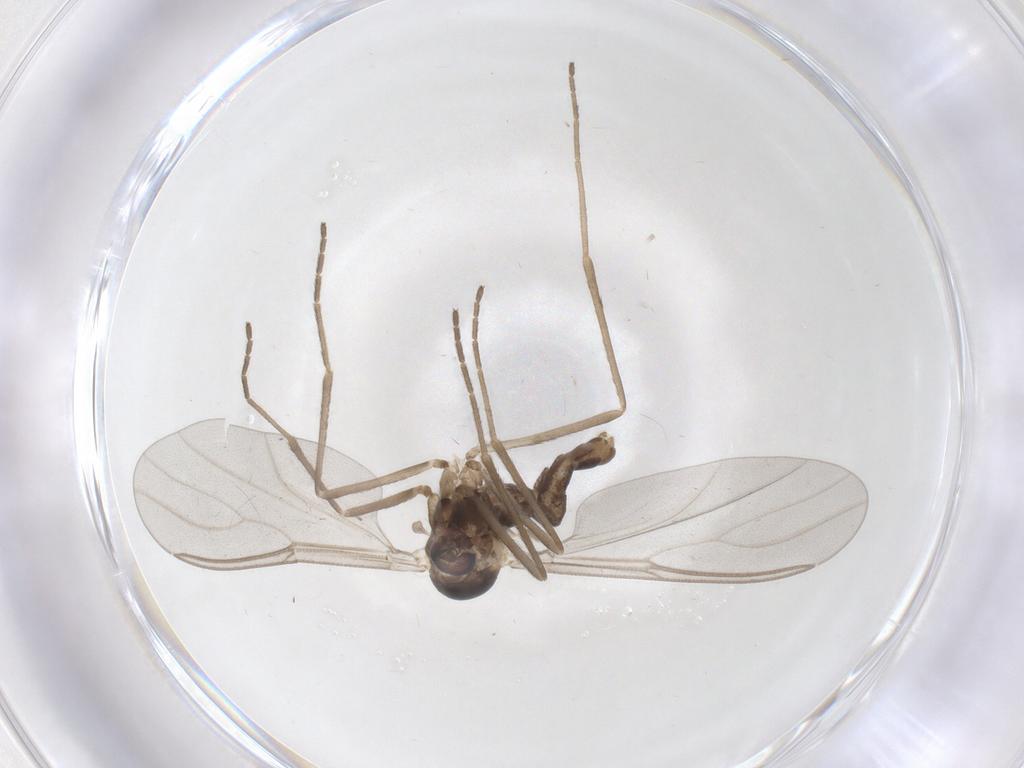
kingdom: Animalia
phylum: Arthropoda
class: Insecta
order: Diptera
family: Cecidomyiidae
